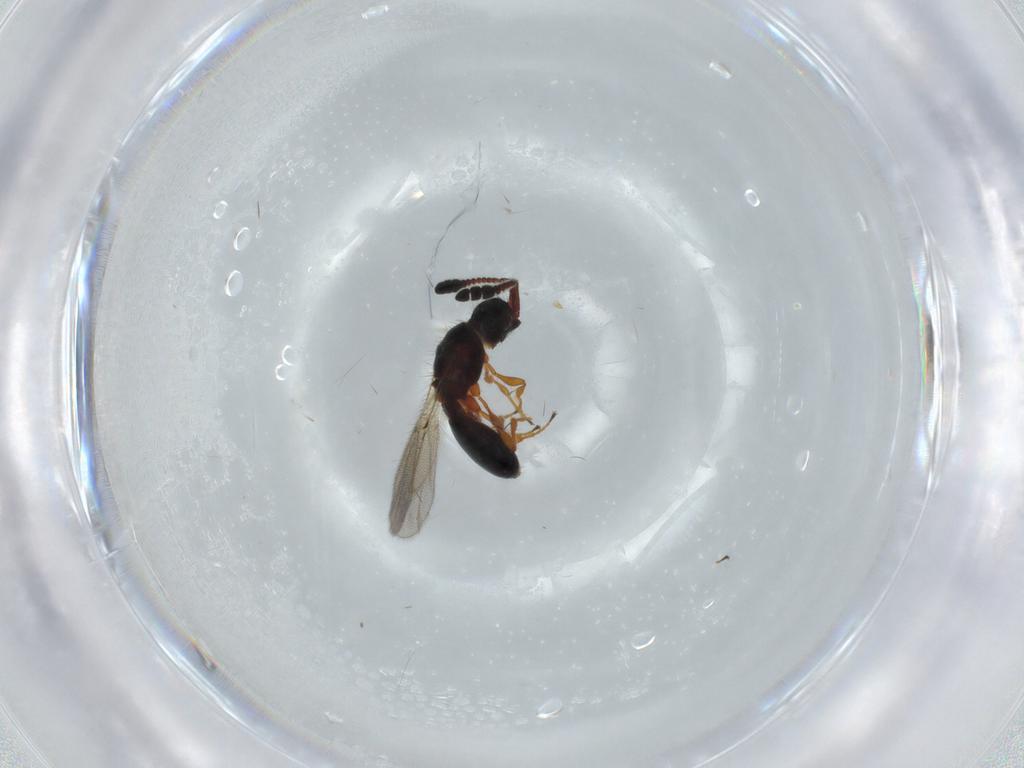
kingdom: Animalia
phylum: Arthropoda
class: Insecta
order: Hymenoptera
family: Diapriidae
